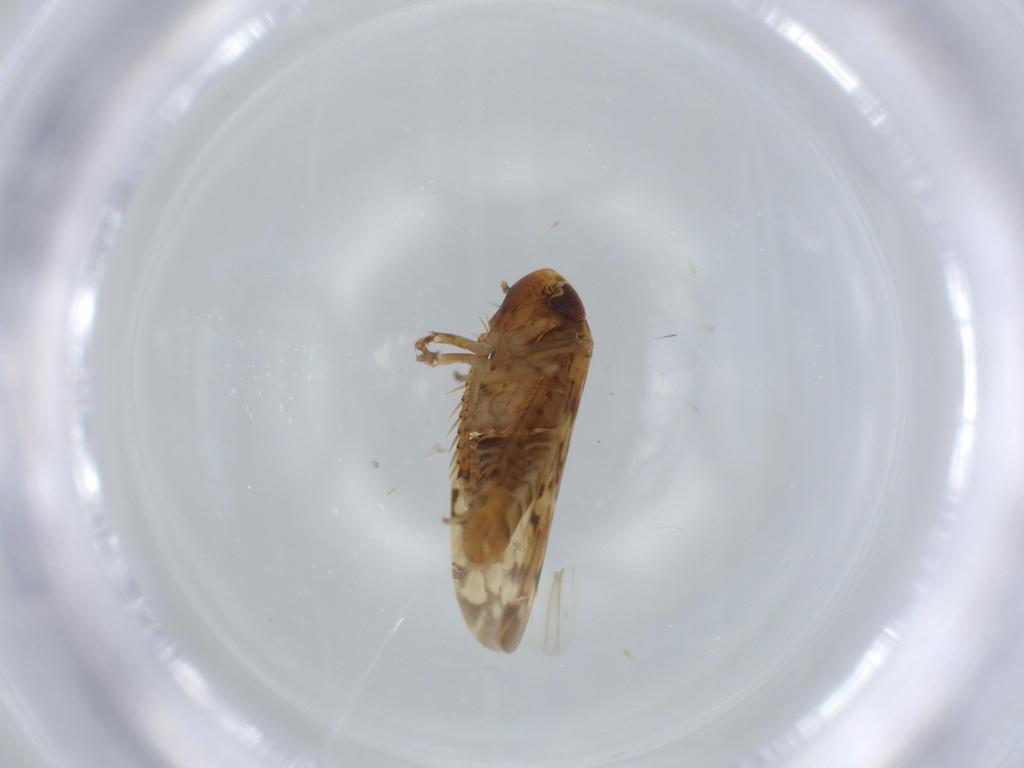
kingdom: Animalia
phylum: Arthropoda
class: Insecta
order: Hemiptera
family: Cicadellidae
